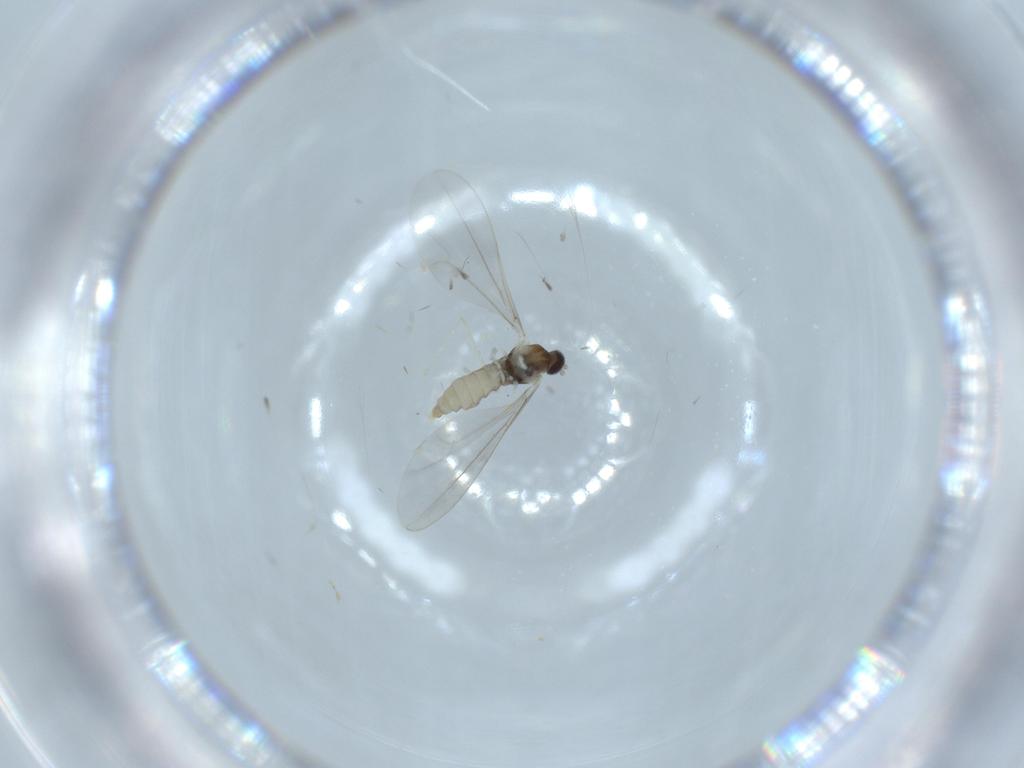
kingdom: Animalia
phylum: Arthropoda
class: Insecta
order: Diptera
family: Cecidomyiidae
